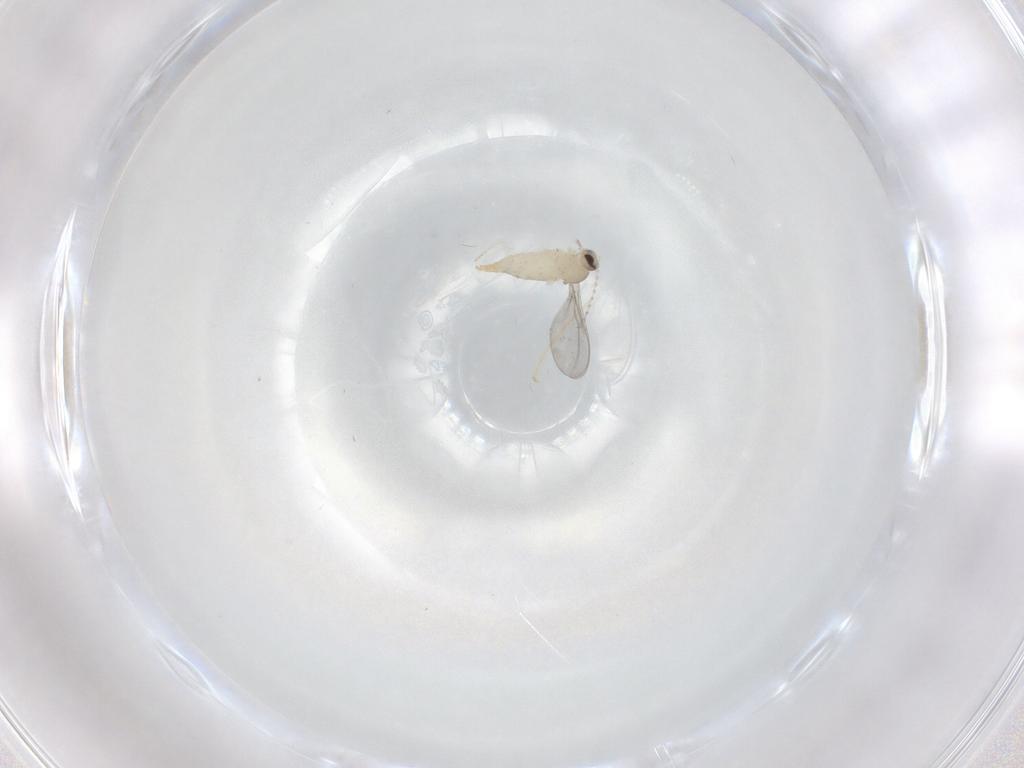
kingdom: Animalia
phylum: Arthropoda
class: Insecta
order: Diptera
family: Cecidomyiidae
